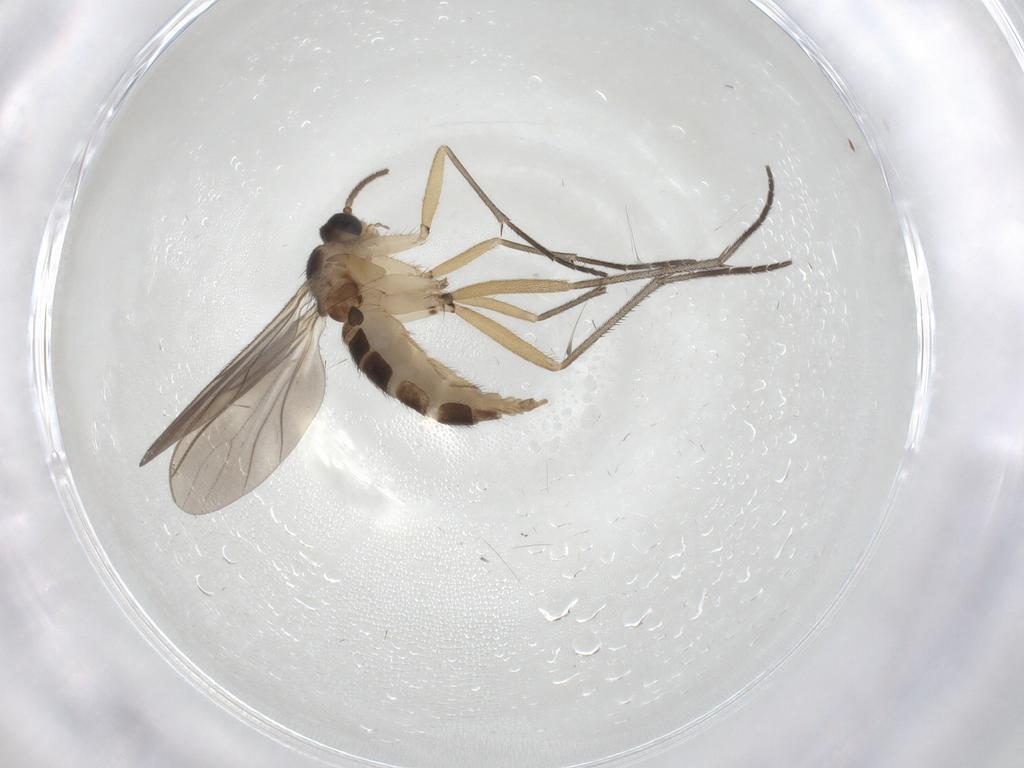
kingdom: Animalia
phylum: Arthropoda
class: Insecta
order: Diptera
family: Sciaridae
